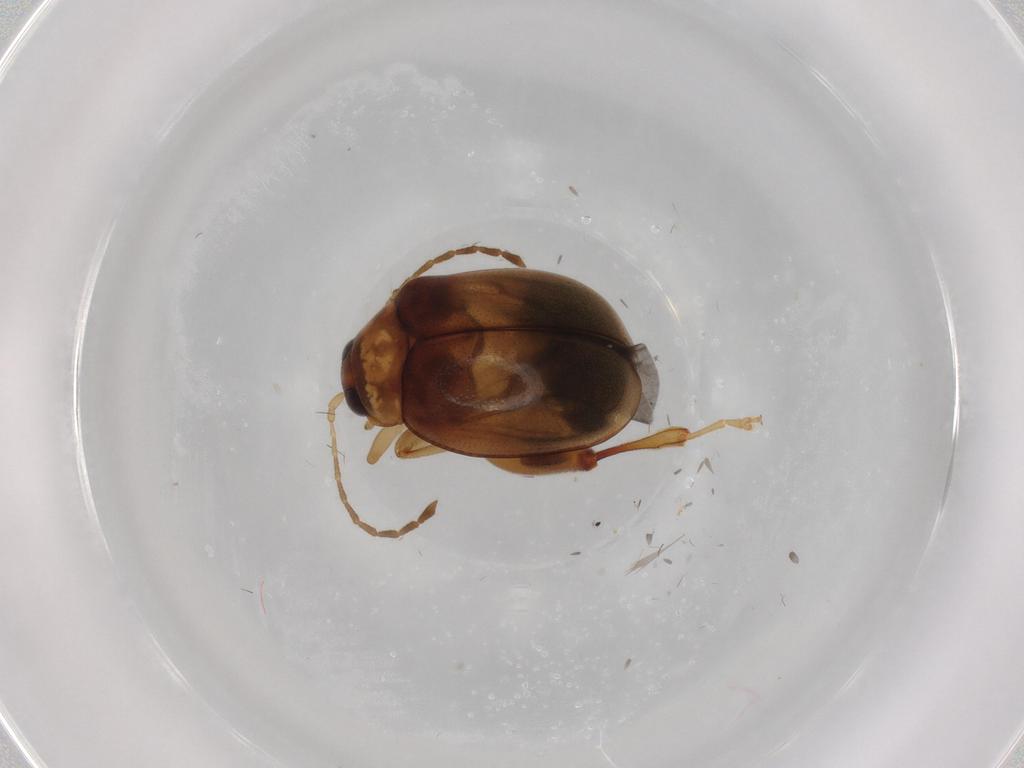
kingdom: Animalia
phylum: Arthropoda
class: Insecta
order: Coleoptera
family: Chrysomelidae
